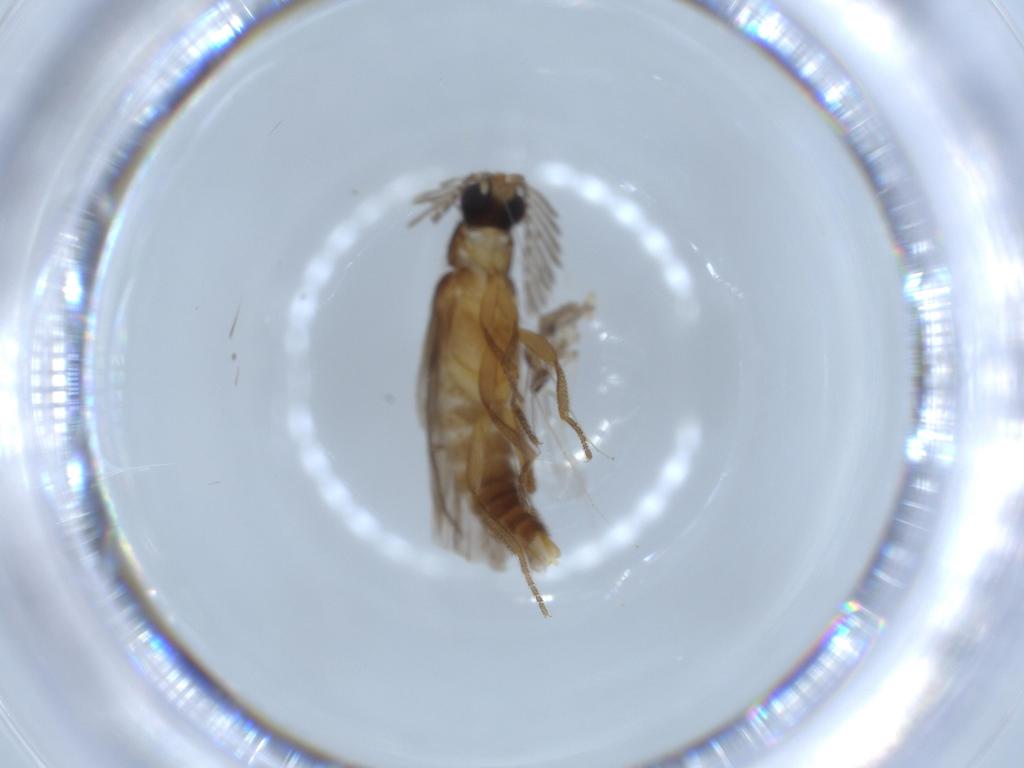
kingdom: Animalia
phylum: Arthropoda
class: Insecta
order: Diptera
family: Cecidomyiidae
